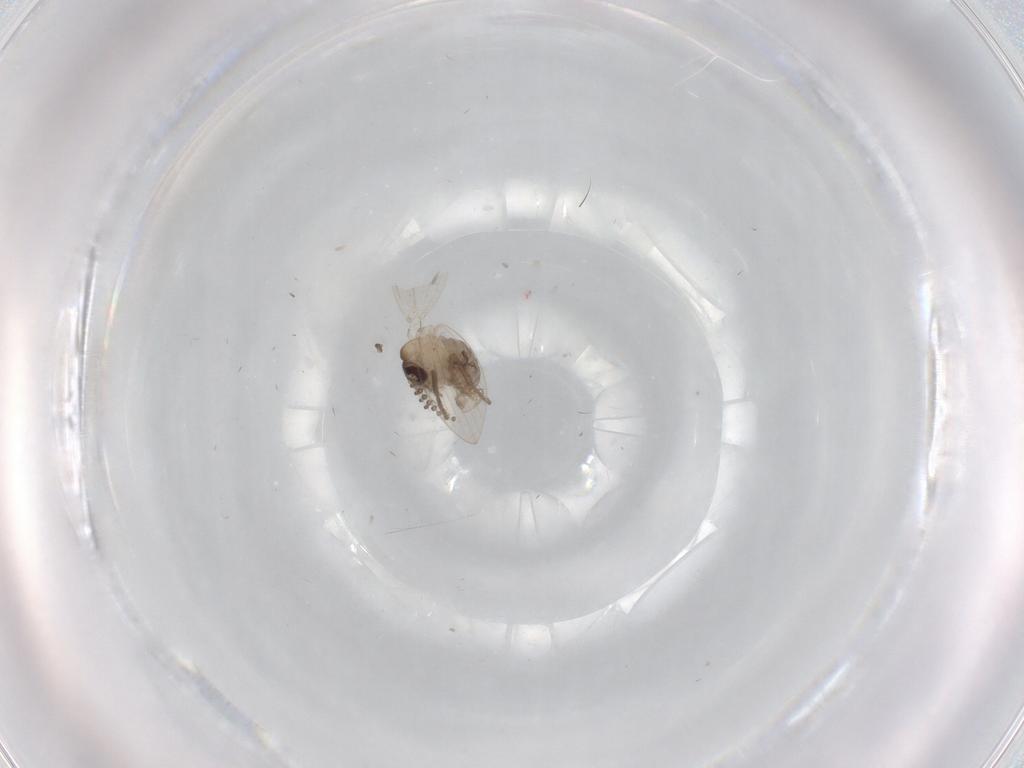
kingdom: Animalia
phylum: Arthropoda
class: Insecta
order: Diptera
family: Psychodidae
